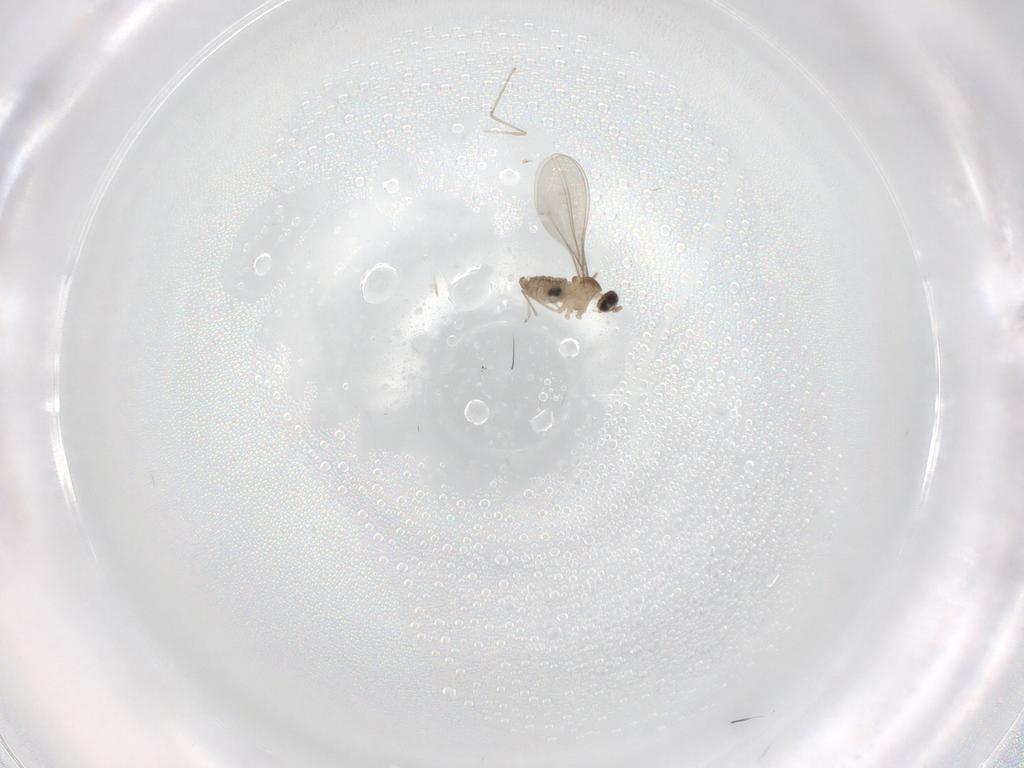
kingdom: Animalia
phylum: Arthropoda
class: Insecta
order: Diptera
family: Cecidomyiidae
